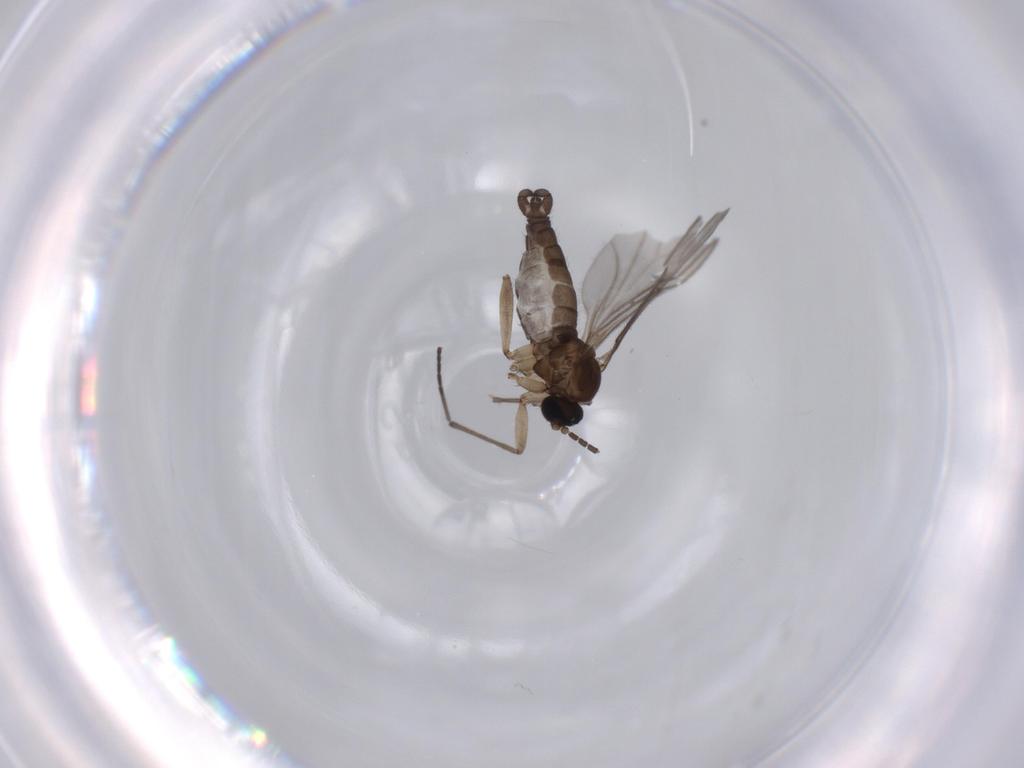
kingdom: Animalia
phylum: Arthropoda
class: Insecta
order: Diptera
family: Sciaridae
